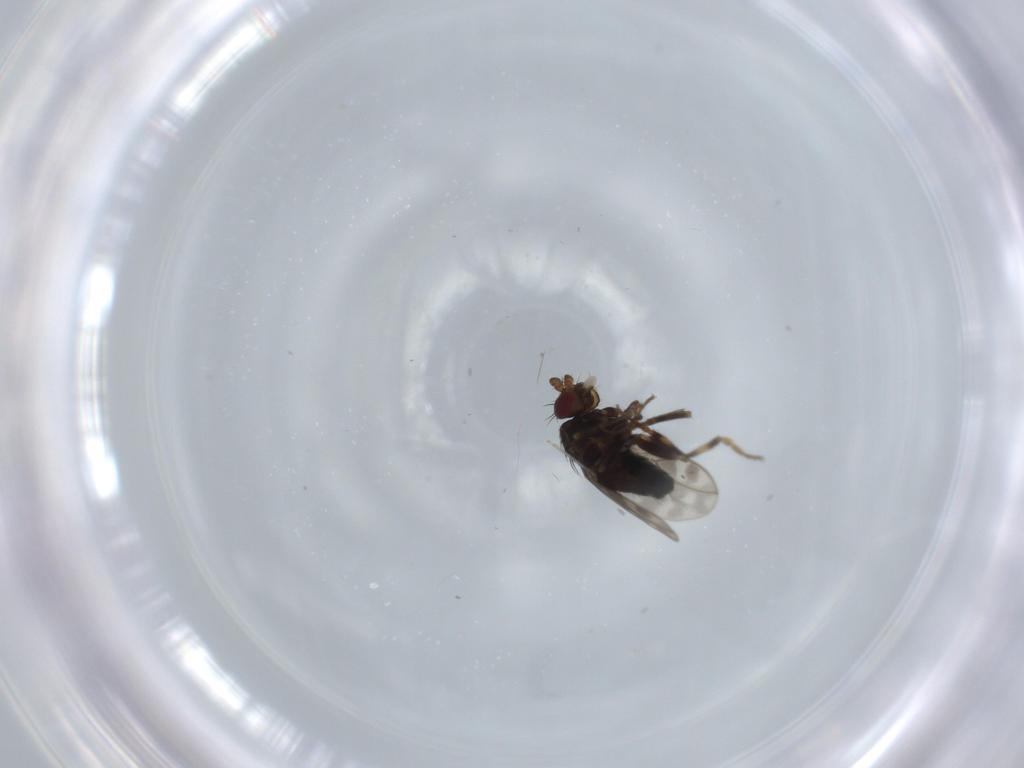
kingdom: Animalia
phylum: Arthropoda
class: Insecta
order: Diptera
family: Sphaeroceridae
